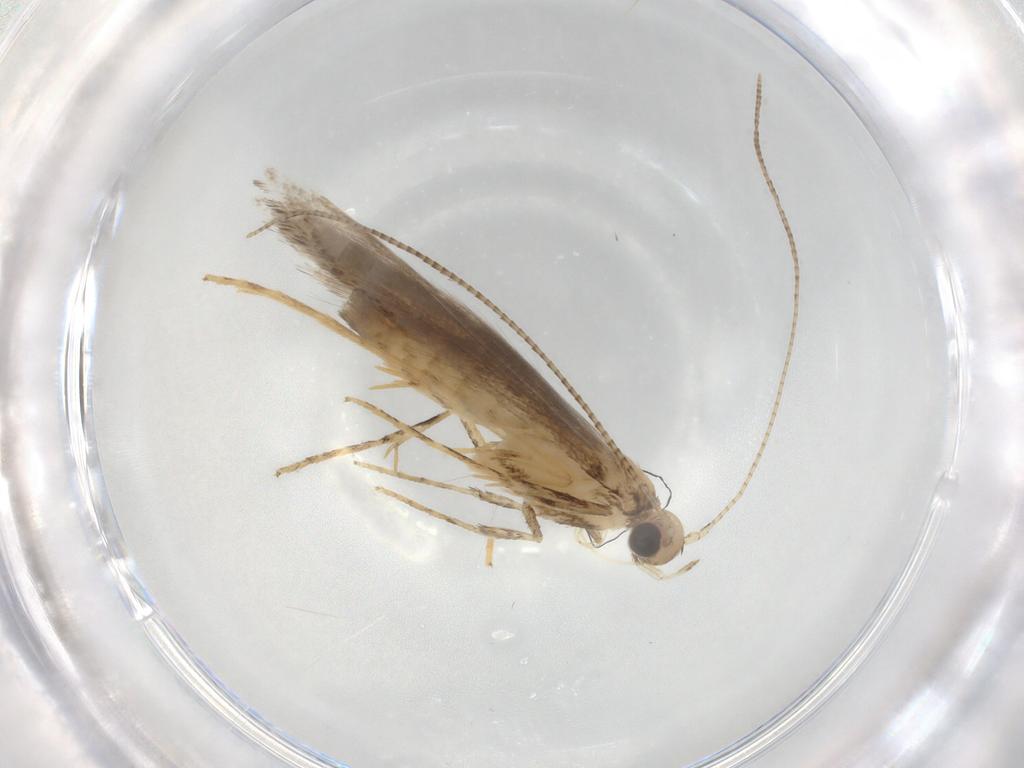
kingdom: Animalia
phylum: Arthropoda
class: Insecta
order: Lepidoptera
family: Gracillariidae
